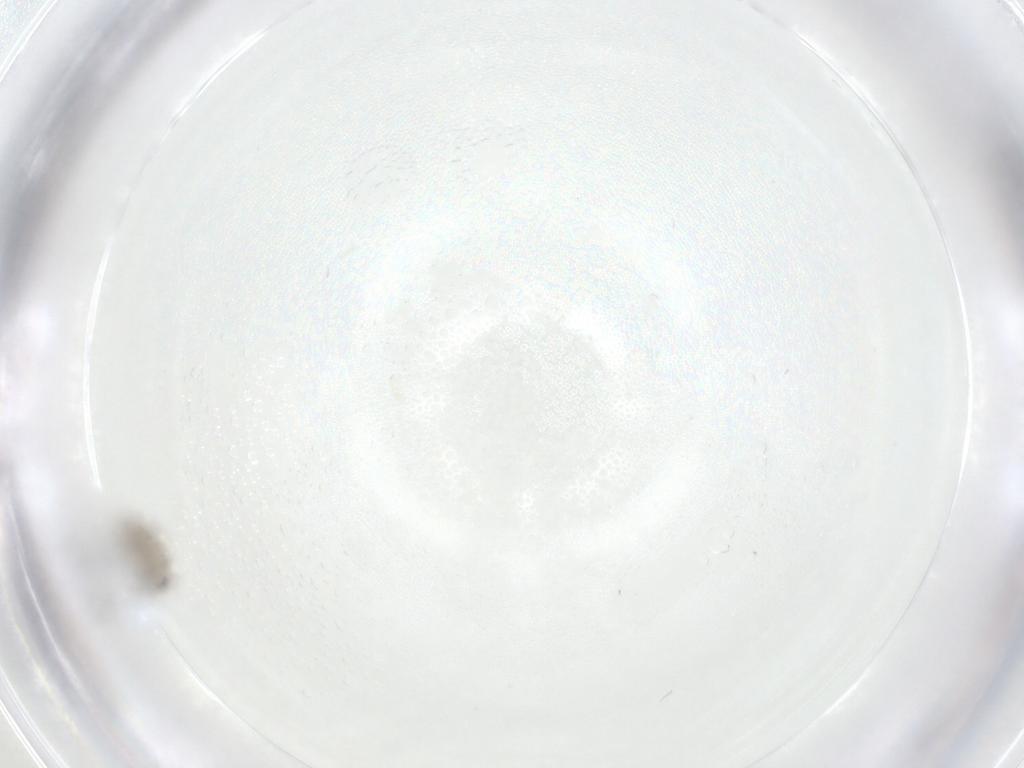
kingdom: Animalia
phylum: Arthropoda
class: Insecta
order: Diptera
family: Phoridae
